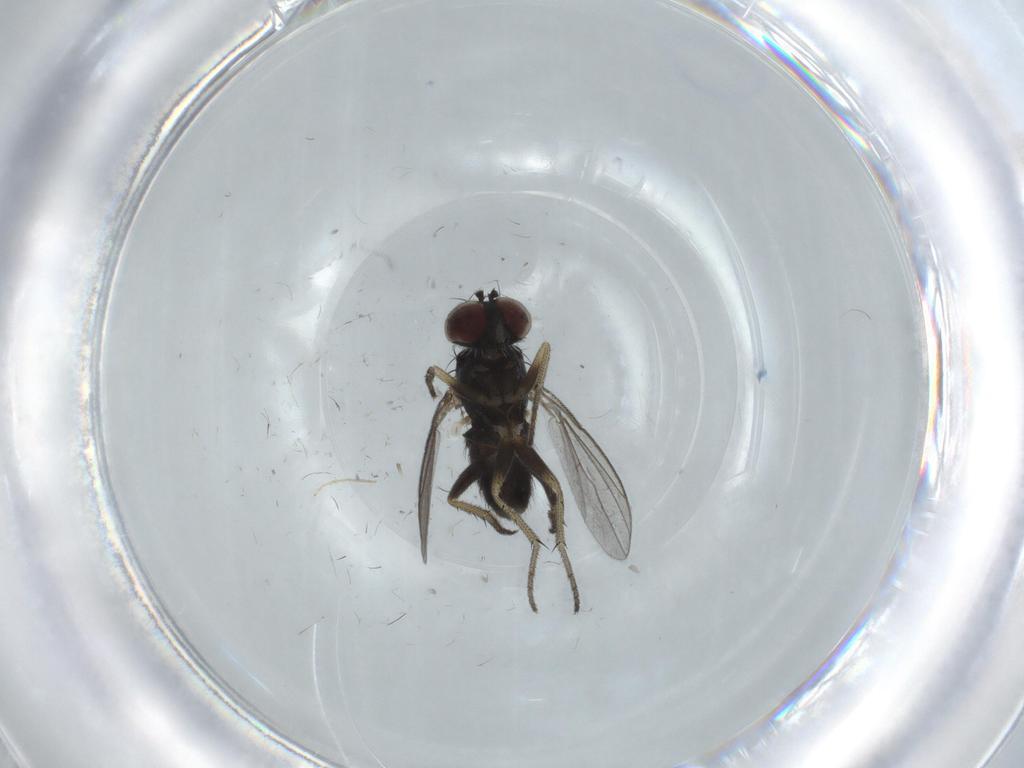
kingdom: Animalia
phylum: Arthropoda
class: Insecta
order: Diptera
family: Chironomidae
